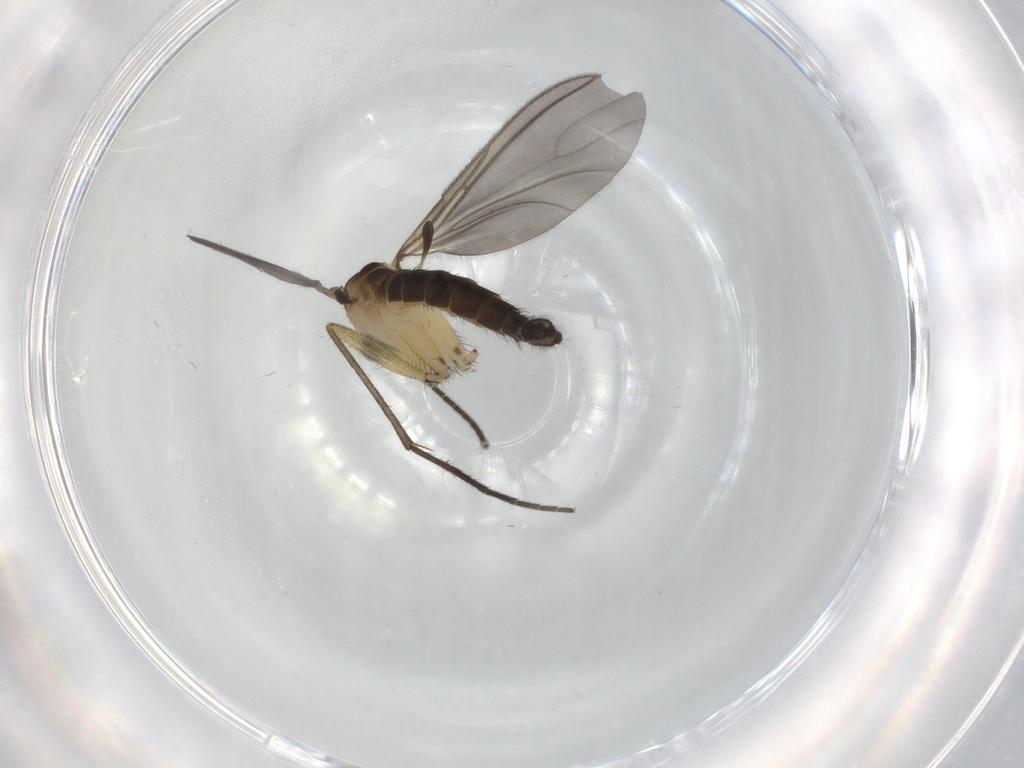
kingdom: Animalia
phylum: Arthropoda
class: Insecta
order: Diptera
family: Sciaridae
